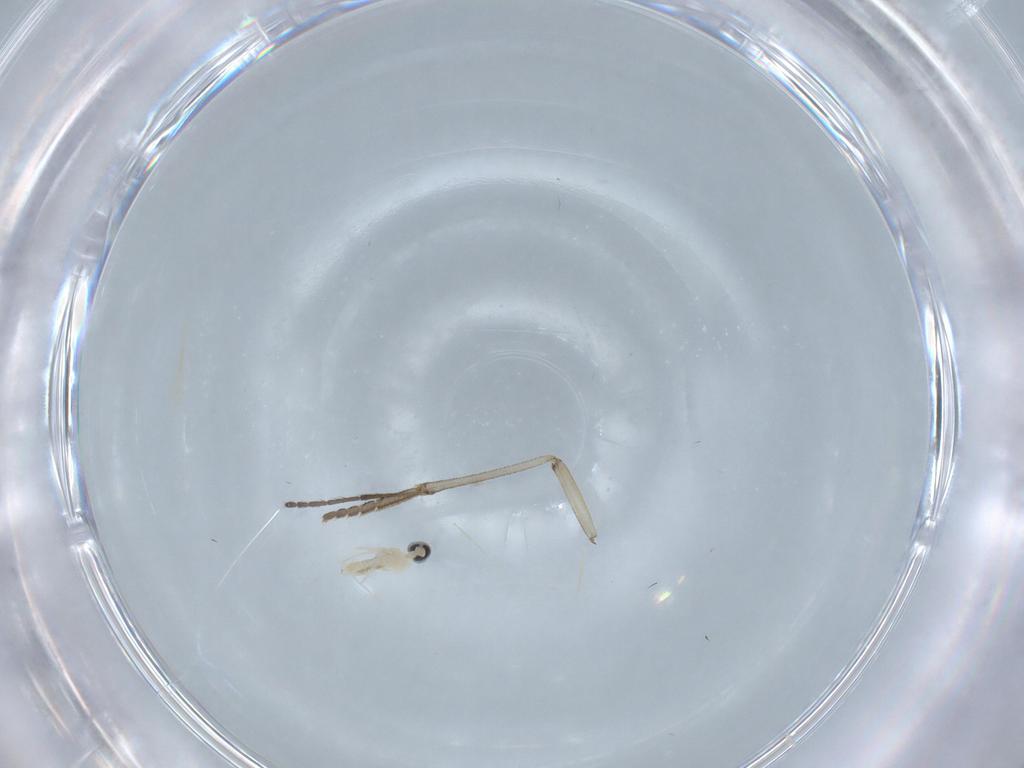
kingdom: Animalia
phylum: Arthropoda
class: Insecta
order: Diptera
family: Cecidomyiidae
